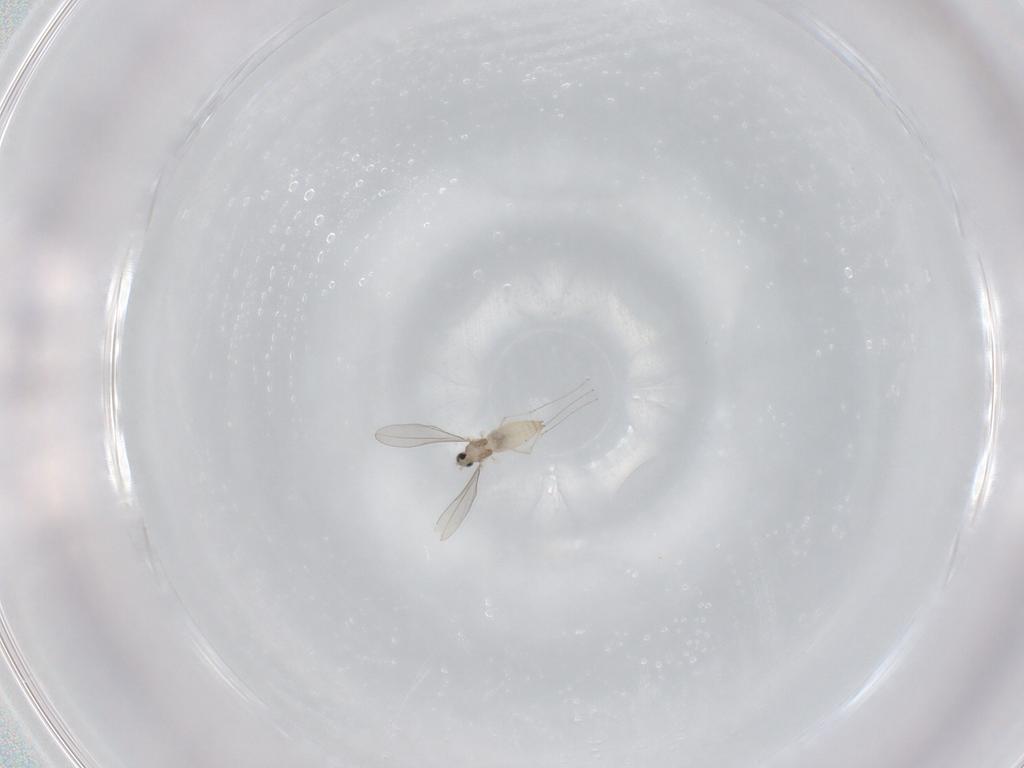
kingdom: Animalia
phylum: Arthropoda
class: Insecta
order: Diptera
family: Cecidomyiidae
